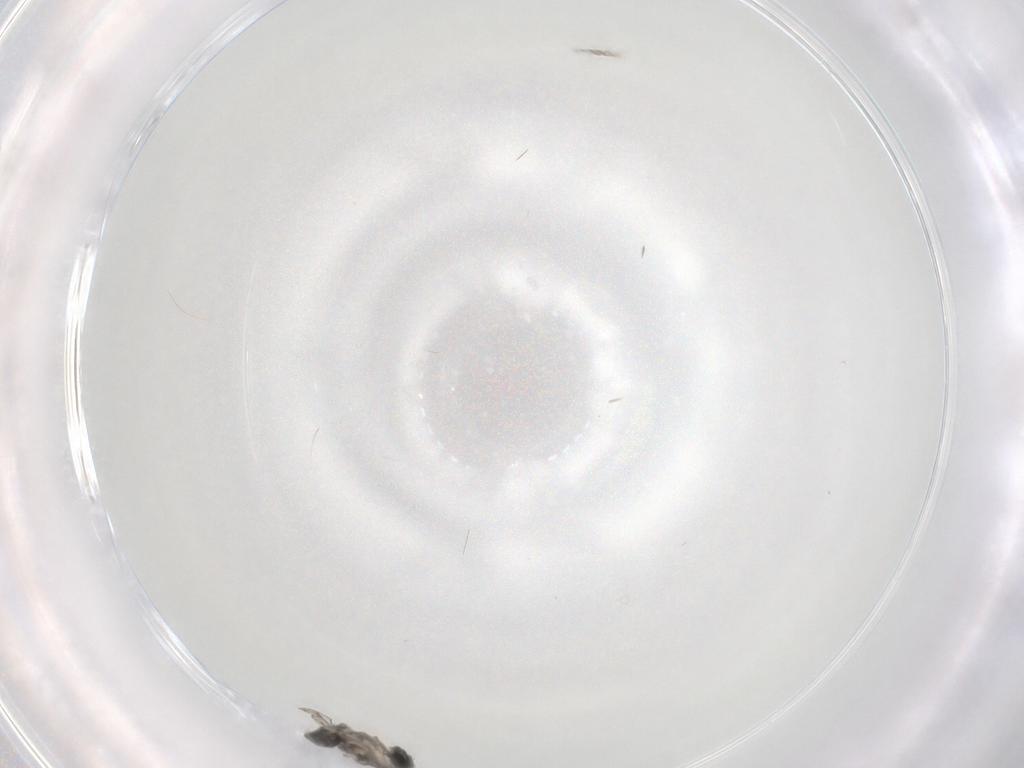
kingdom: Animalia
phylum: Arthropoda
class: Insecta
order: Diptera
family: Cecidomyiidae
